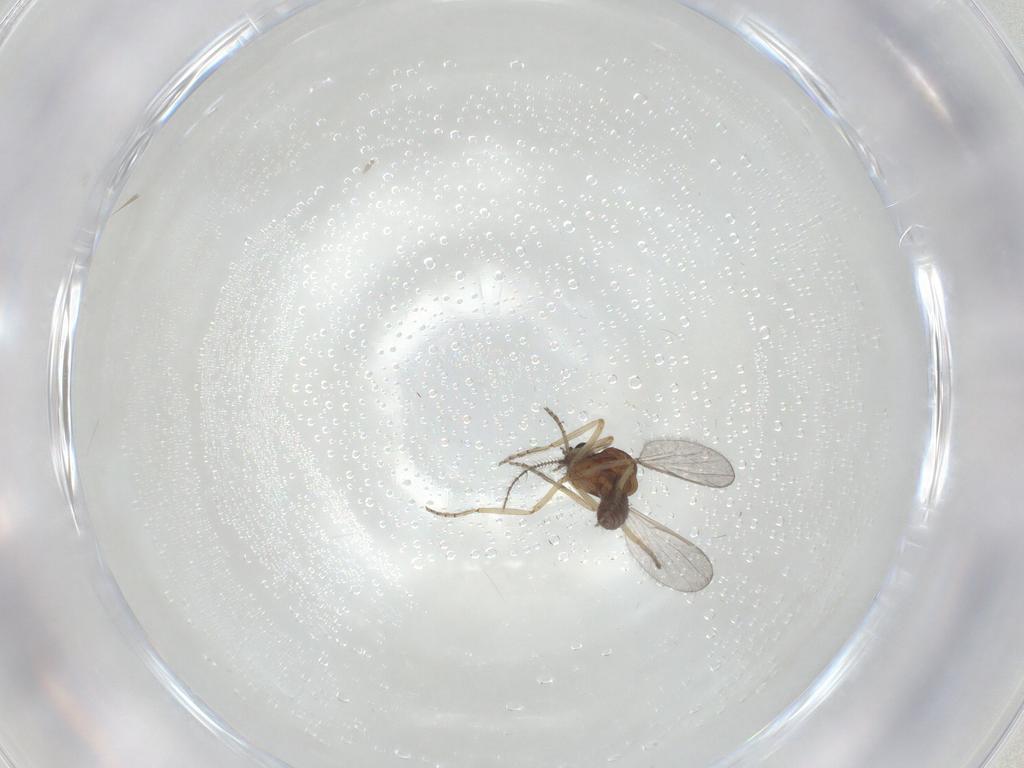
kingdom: Animalia
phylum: Arthropoda
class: Insecta
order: Diptera
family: Ceratopogonidae
